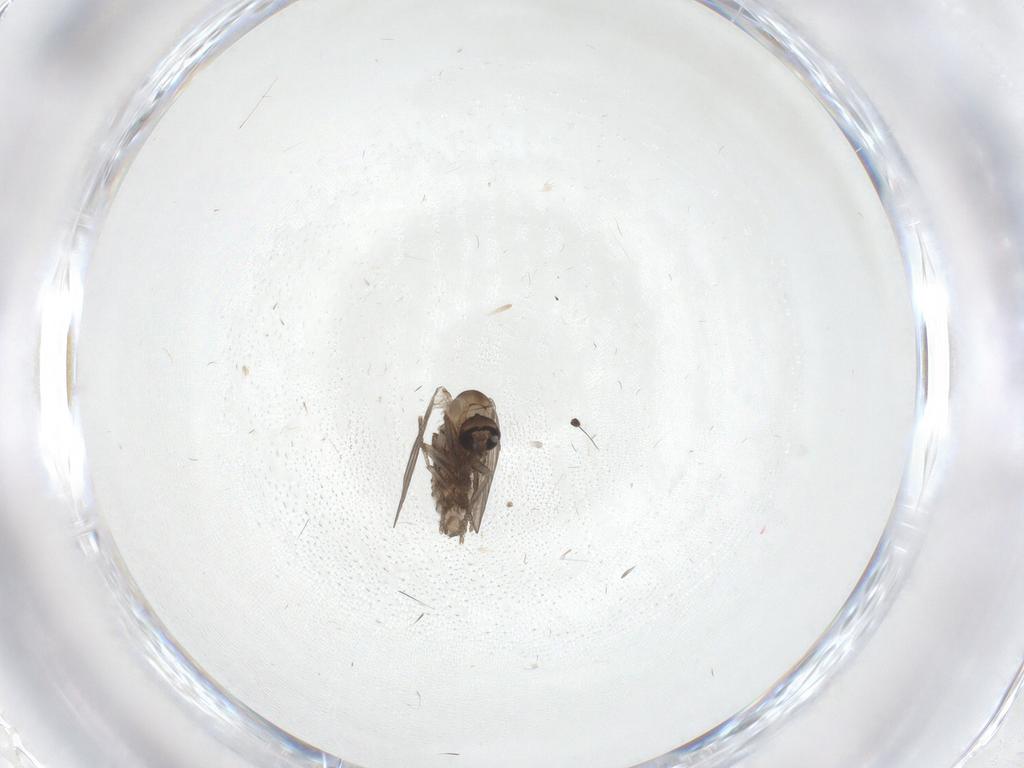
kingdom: Animalia
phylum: Arthropoda
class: Insecta
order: Diptera
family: Psychodidae
